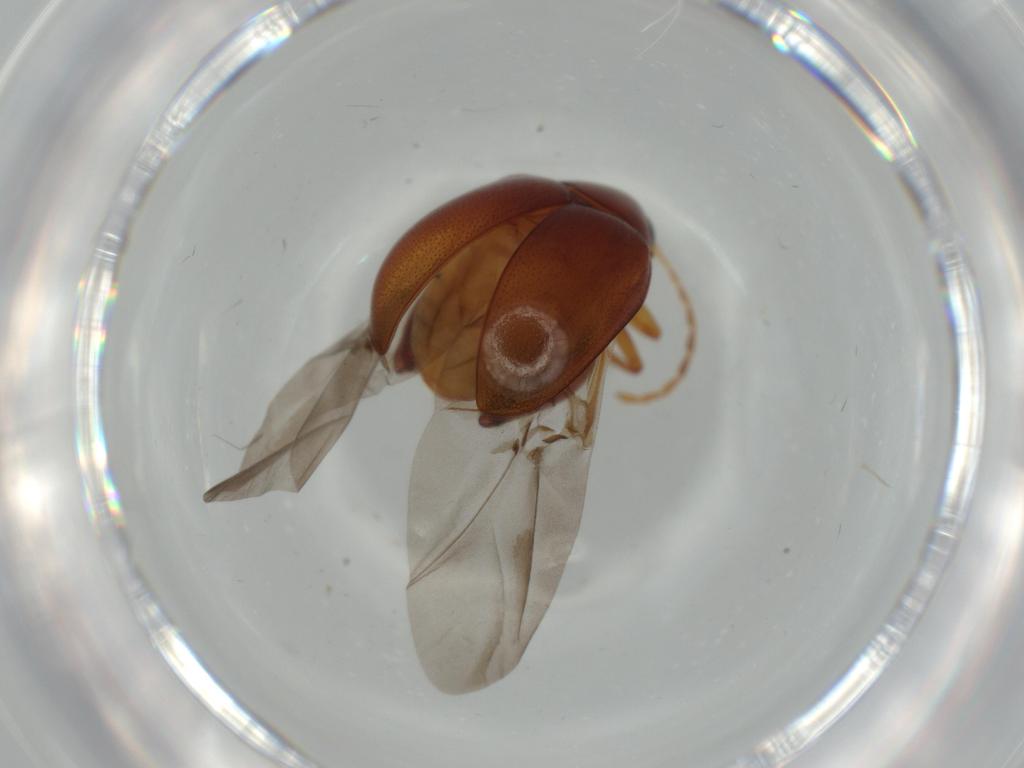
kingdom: Animalia
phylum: Arthropoda
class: Insecta
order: Coleoptera
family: Chrysomelidae
